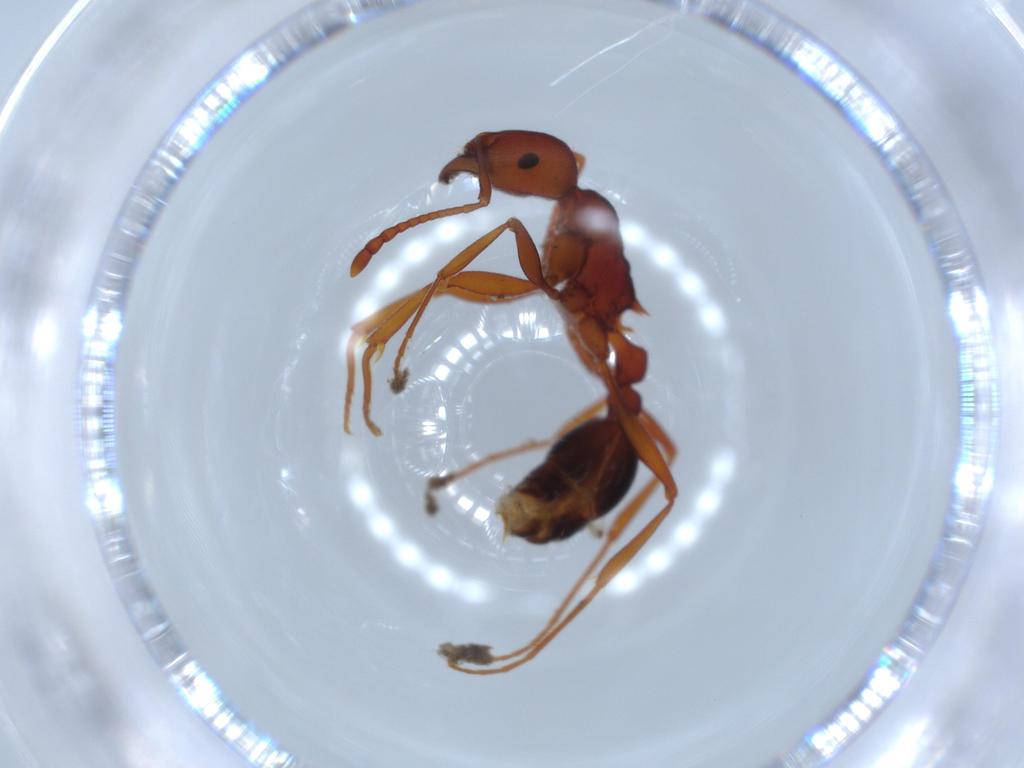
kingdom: Animalia
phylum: Arthropoda
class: Insecta
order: Hymenoptera
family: Formicidae
